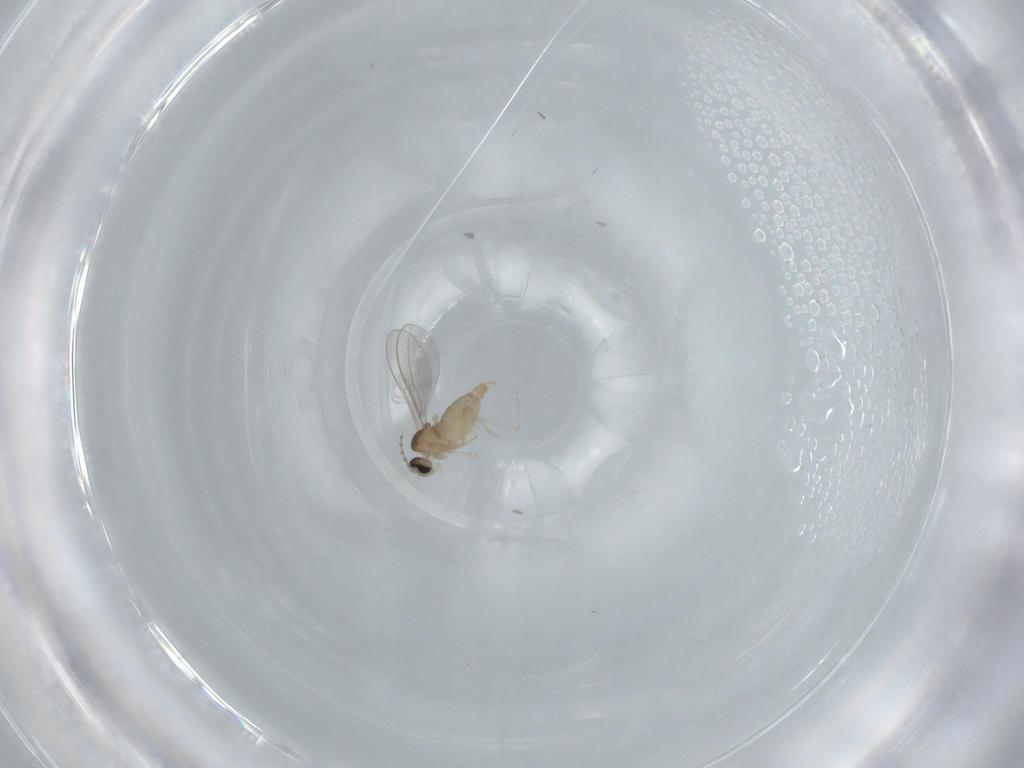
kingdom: Animalia
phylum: Arthropoda
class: Insecta
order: Diptera
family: Cecidomyiidae
